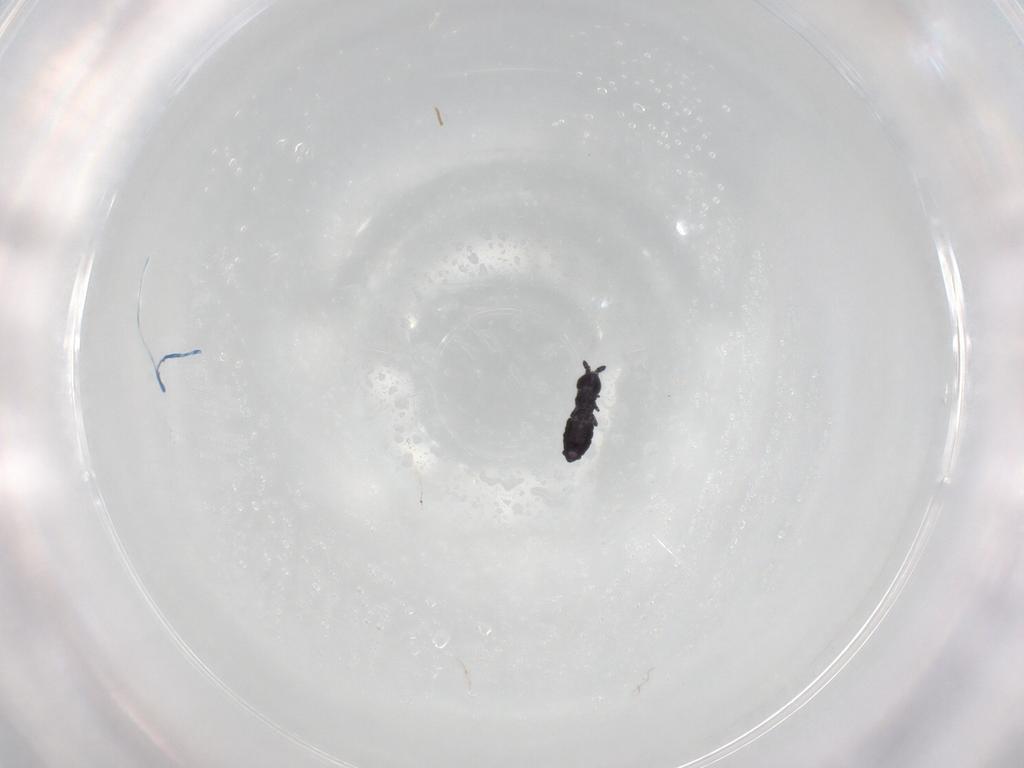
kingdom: Animalia
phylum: Arthropoda
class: Collembola
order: Poduromorpha
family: Hypogastruridae
